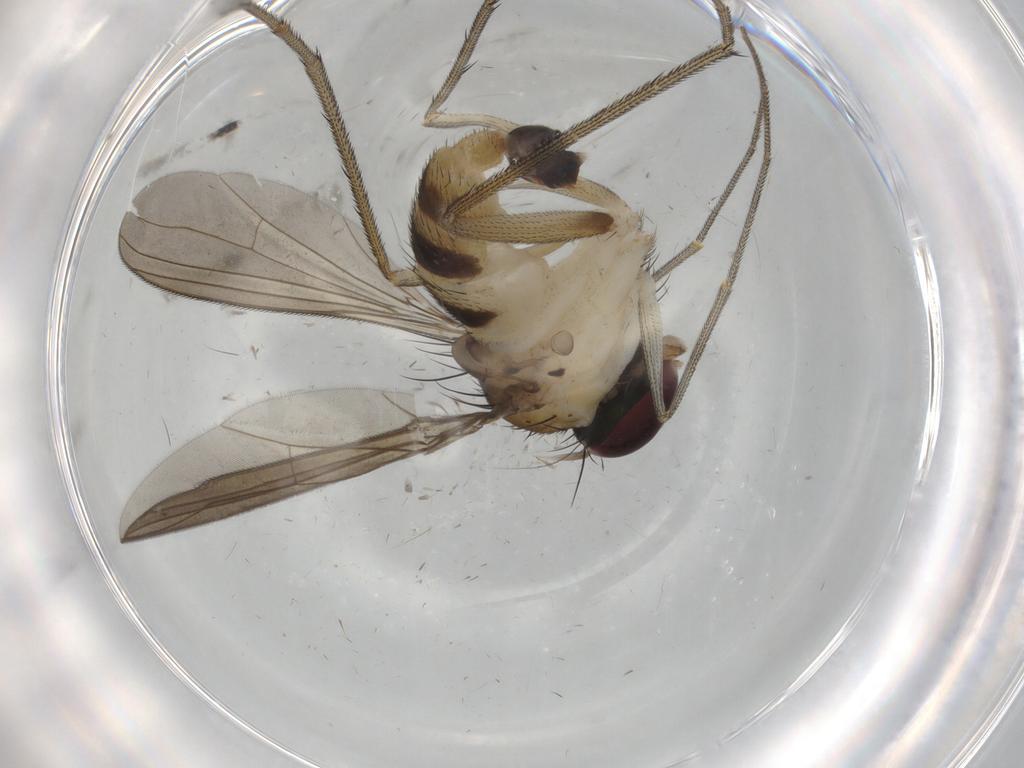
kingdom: Animalia
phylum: Arthropoda
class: Insecta
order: Diptera
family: Dolichopodidae
